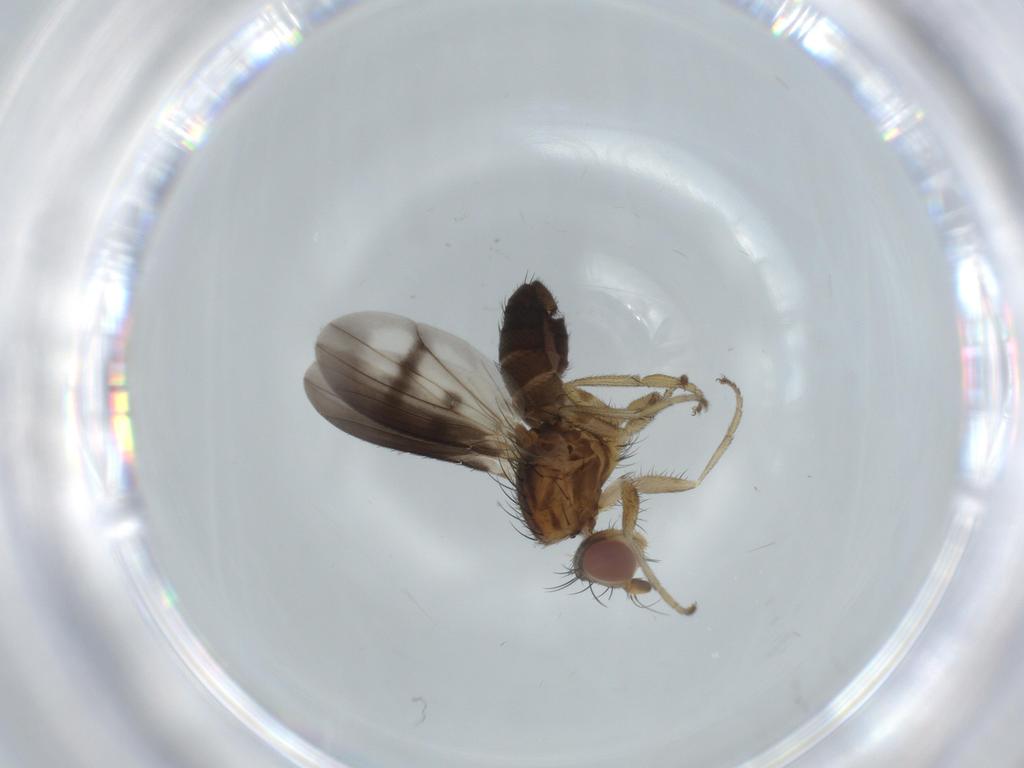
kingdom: Animalia
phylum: Arthropoda
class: Insecta
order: Diptera
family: Heleomyzidae
